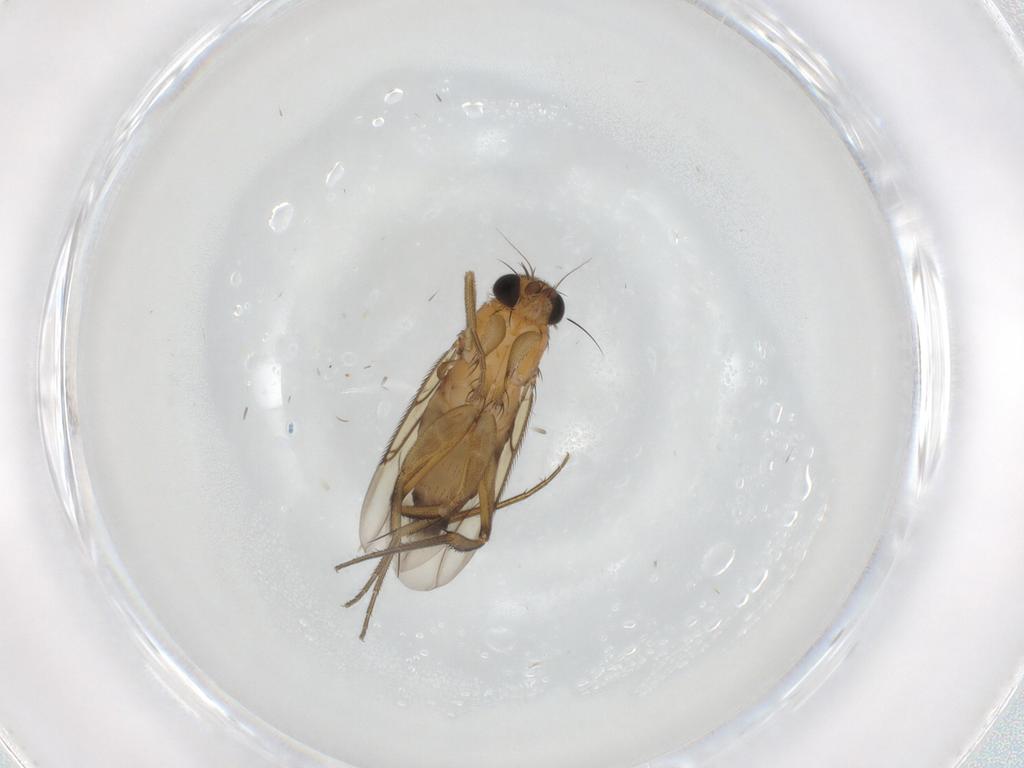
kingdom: Animalia
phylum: Arthropoda
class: Insecta
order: Diptera
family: Phoridae
